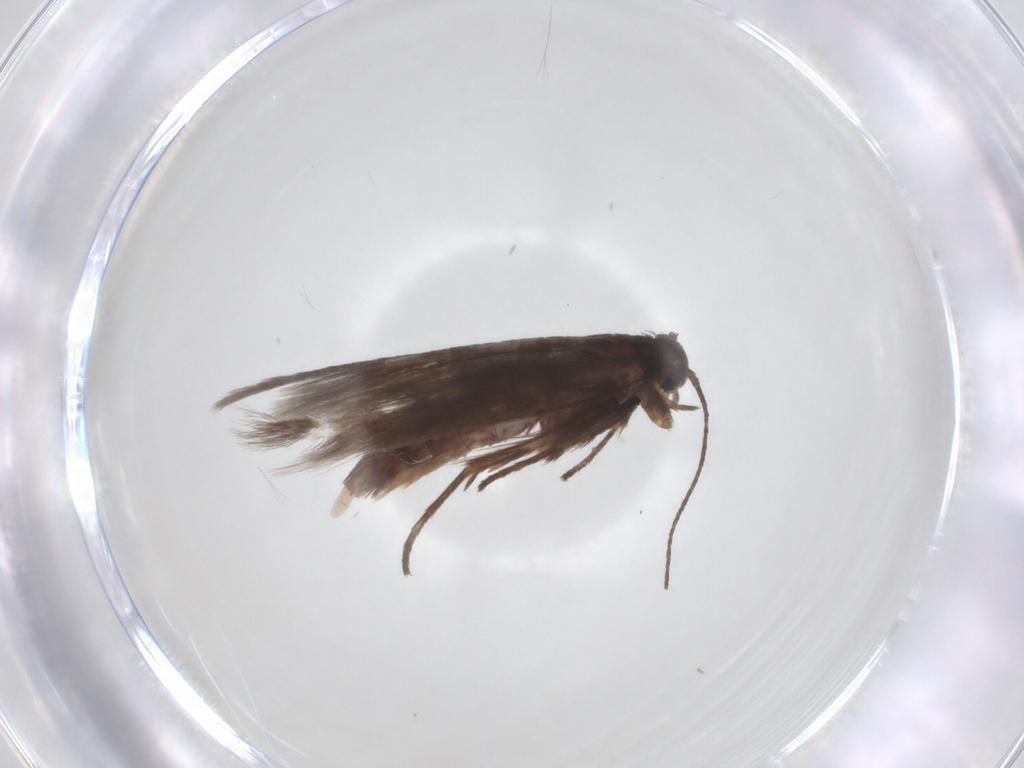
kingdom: Animalia
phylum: Arthropoda
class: Insecta
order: Lepidoptera
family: Scythrididae
